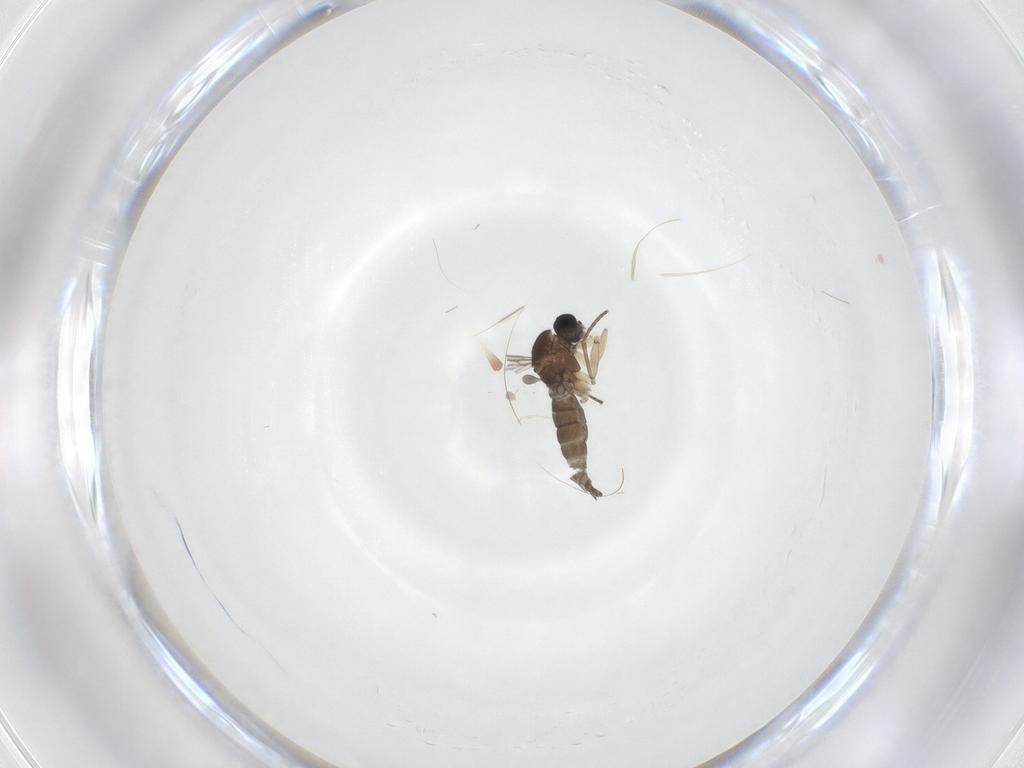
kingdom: Animalia
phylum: Arthropoda
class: Insecta
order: Diptera
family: Sciaridae
